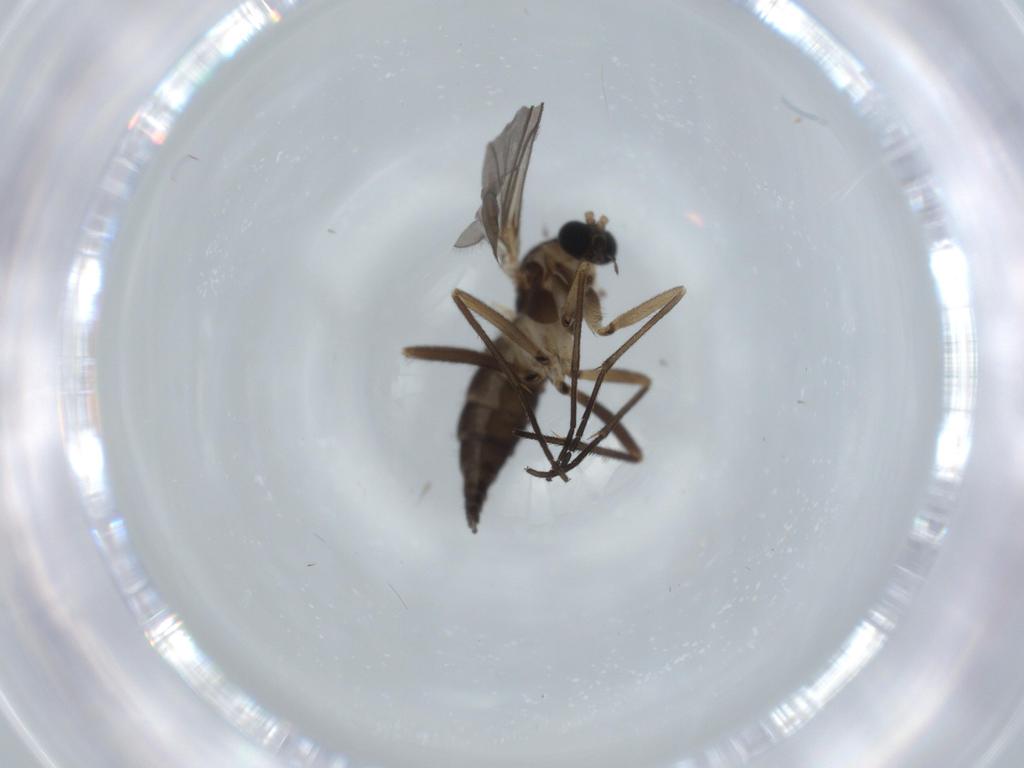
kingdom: Animalia
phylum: Arthropoda
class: Insecta
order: Diptera
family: Sciaridae
